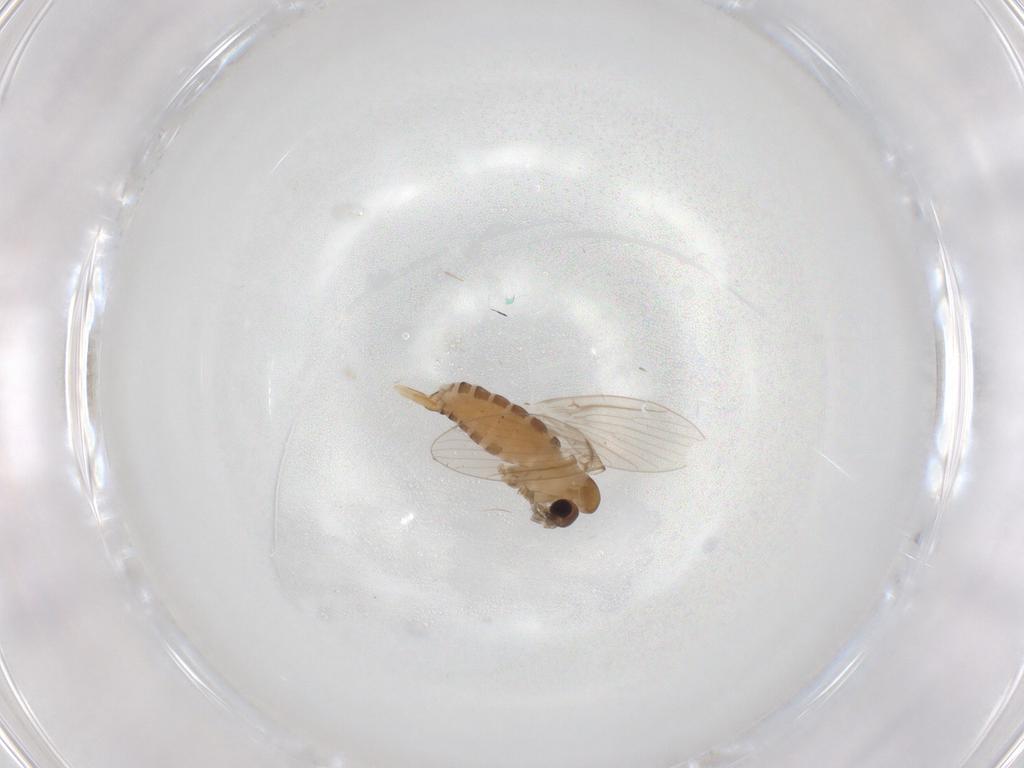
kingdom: Animalia
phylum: Arthropoda
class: Insecta
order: Diptera
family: Psychodidae
